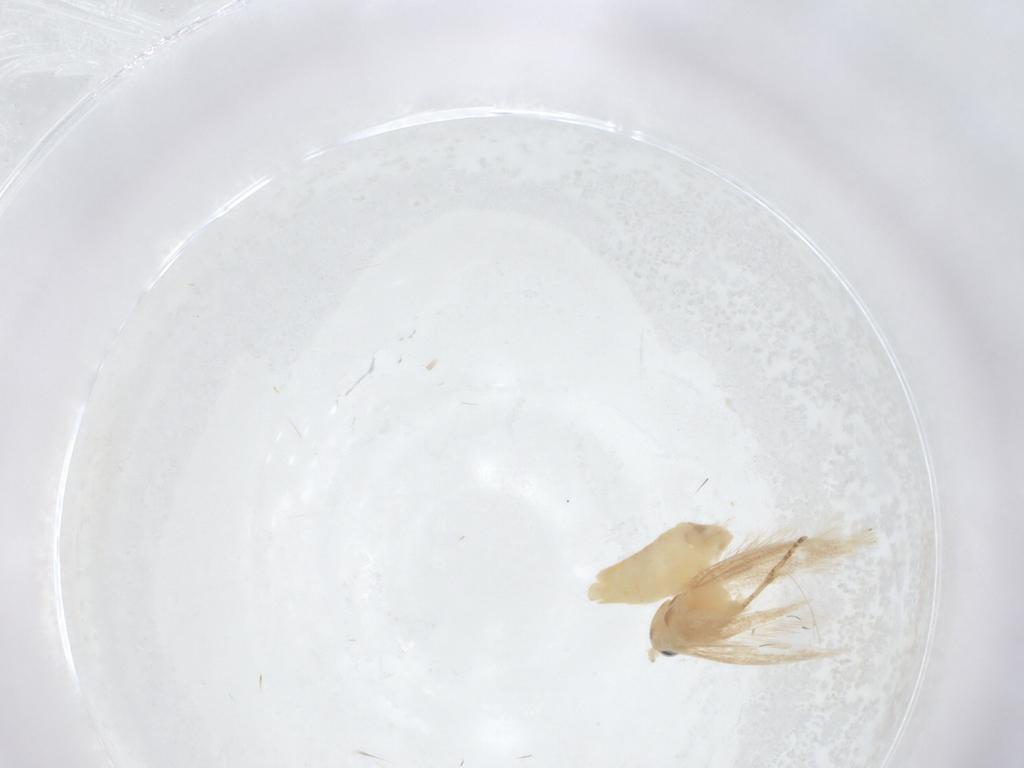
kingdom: Animalia
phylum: Arthropoda
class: Insecta
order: Lepidoptera
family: Depressariidae
